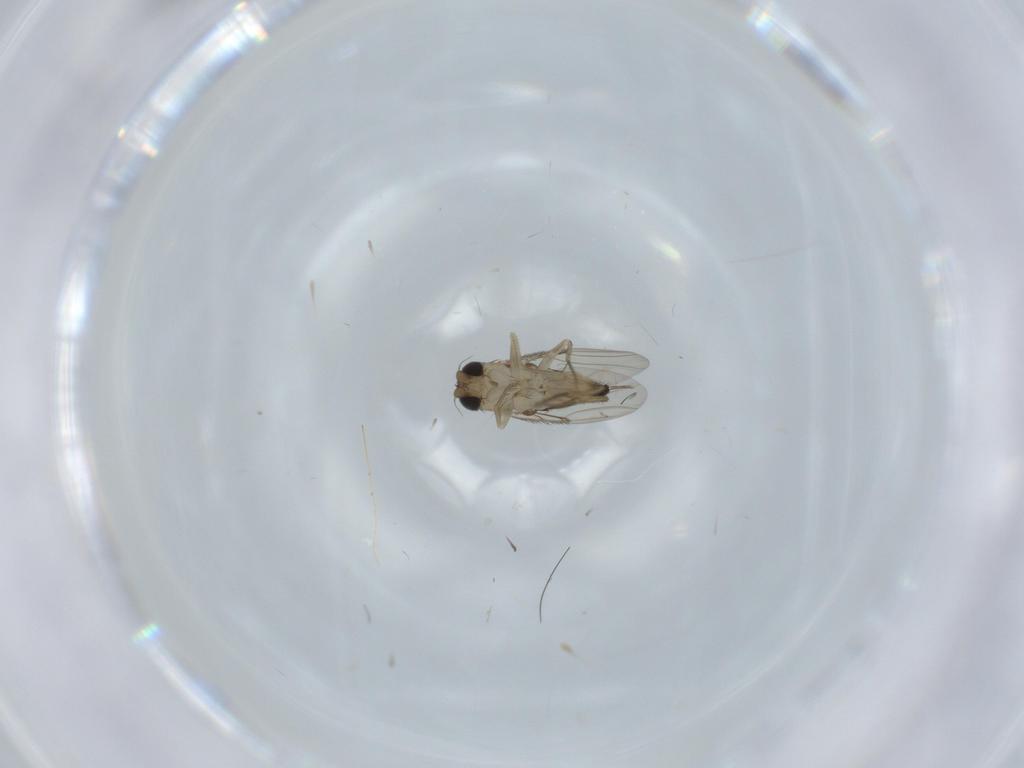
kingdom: Animalia
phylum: Arthropoda
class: Insecta
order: Diptera
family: Phoridae
